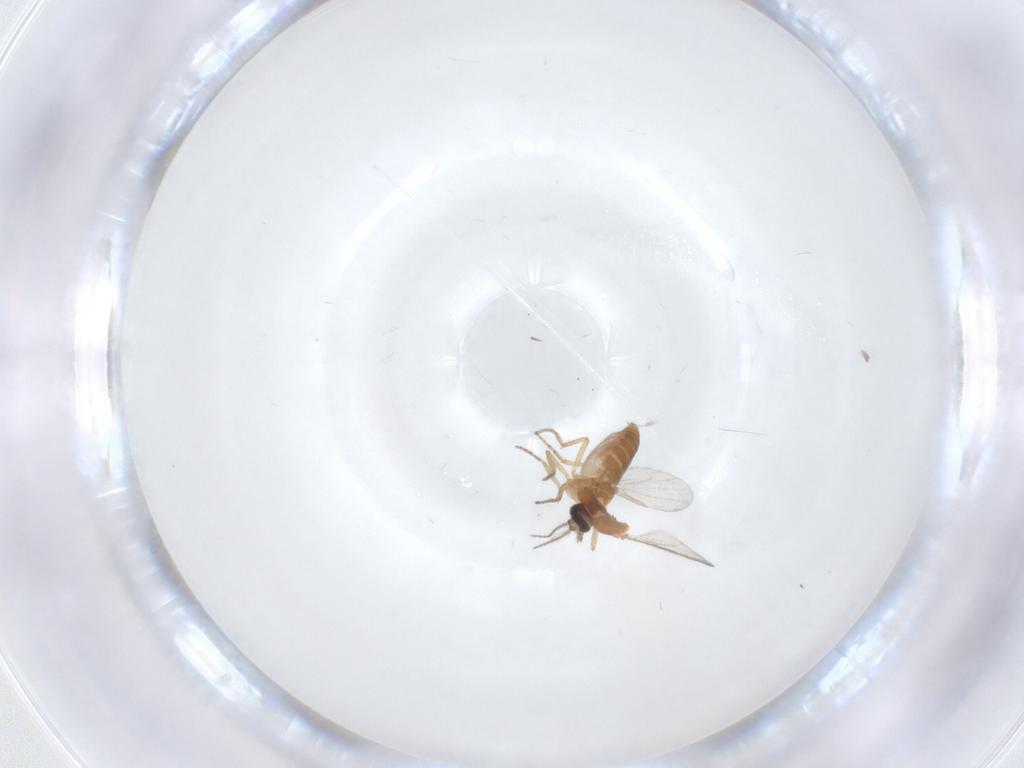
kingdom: Animalia
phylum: Arthropoda
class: Insecta
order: Diptera
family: Ceratopogonidae
